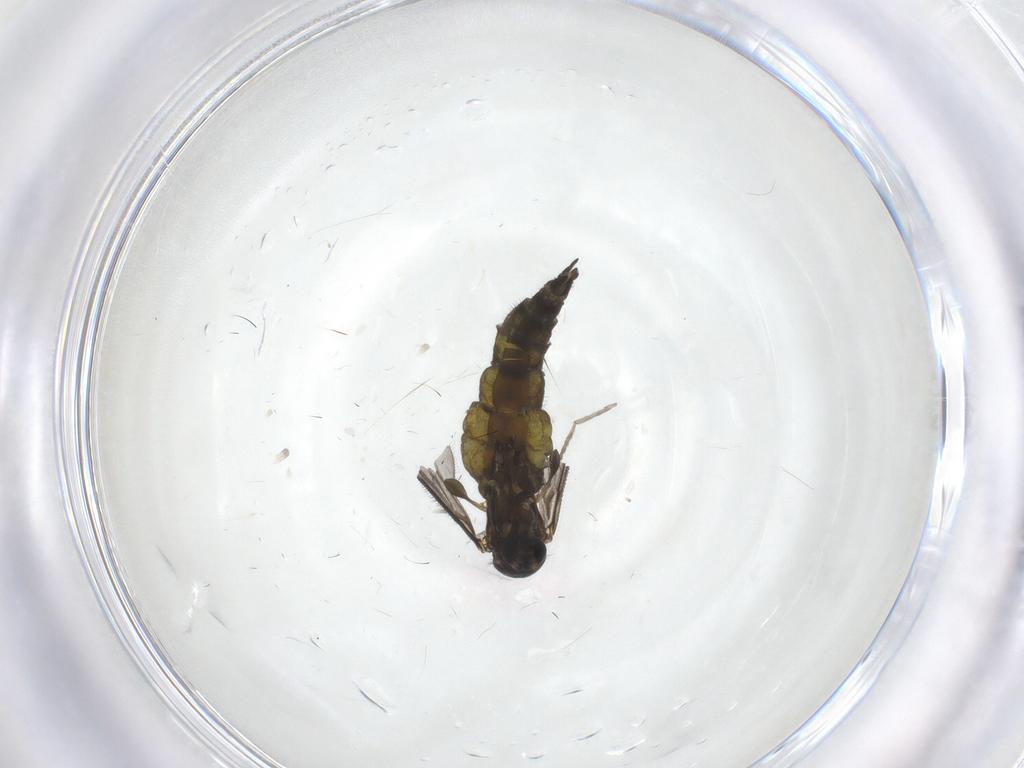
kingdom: Animalia
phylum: Arthropoda
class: Insecta
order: Diptera
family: Sciaridae
